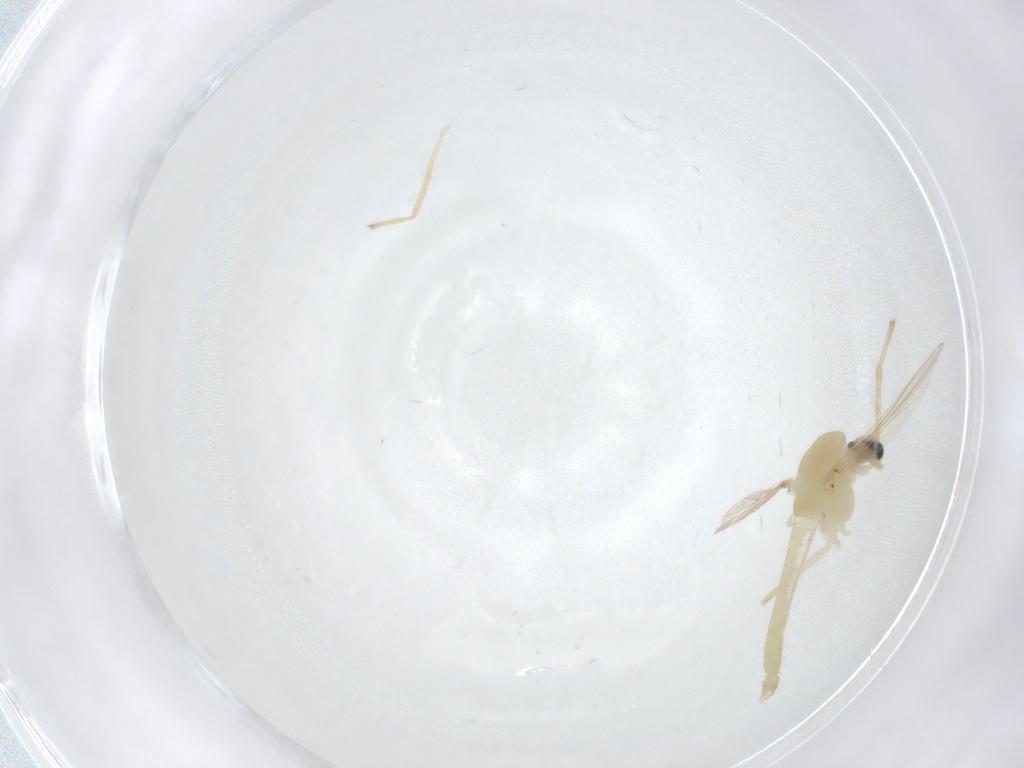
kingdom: Animalia
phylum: Arthropoda
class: Insecta
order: Diptera
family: Chironomidae
